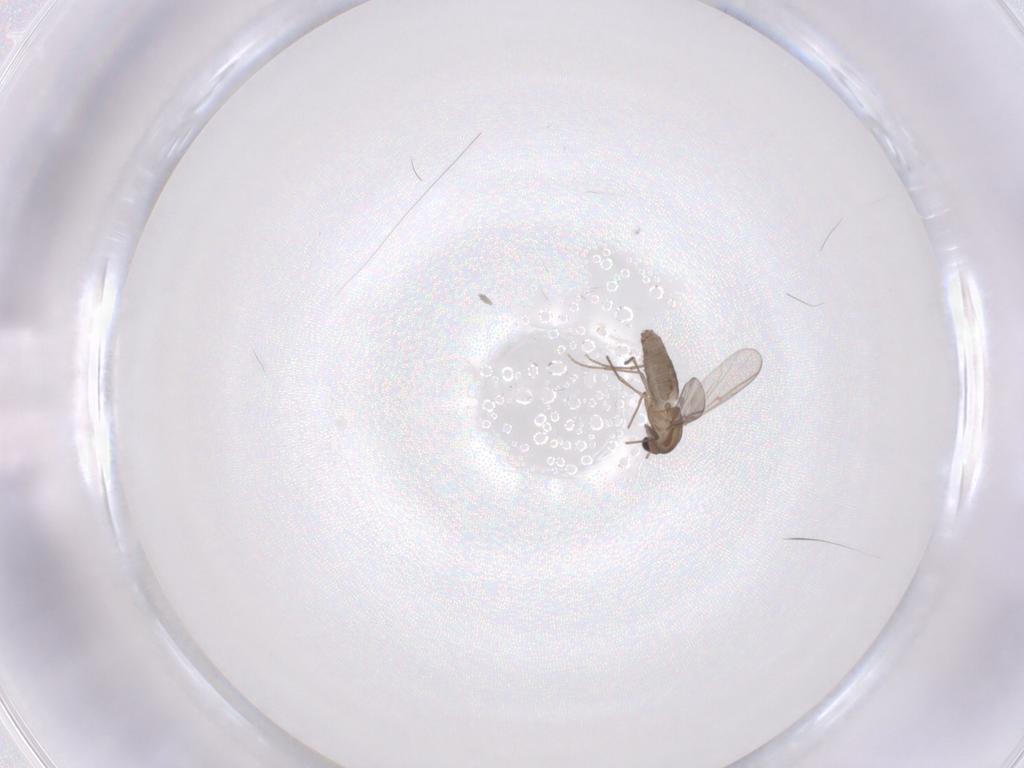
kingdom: Animalia
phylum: Arthropoda
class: Insecta
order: Diptera
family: Chironomidae
